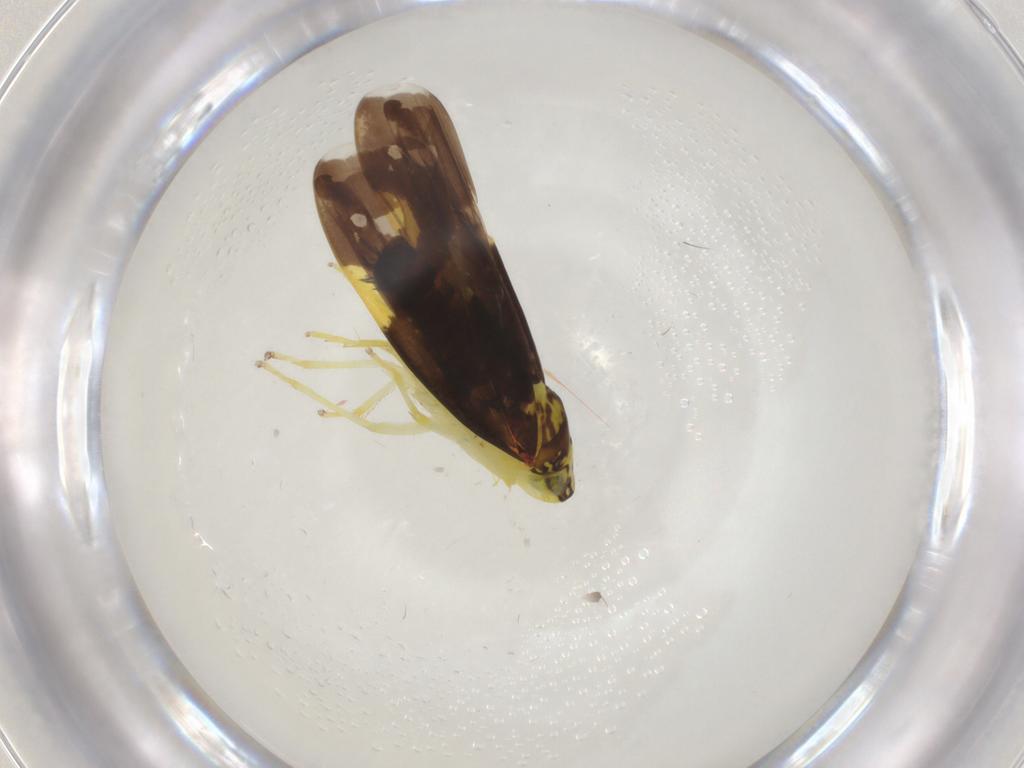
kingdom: Animalia
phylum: Arthropoda
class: Insecta
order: Hemiptera
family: Cicadellidae
